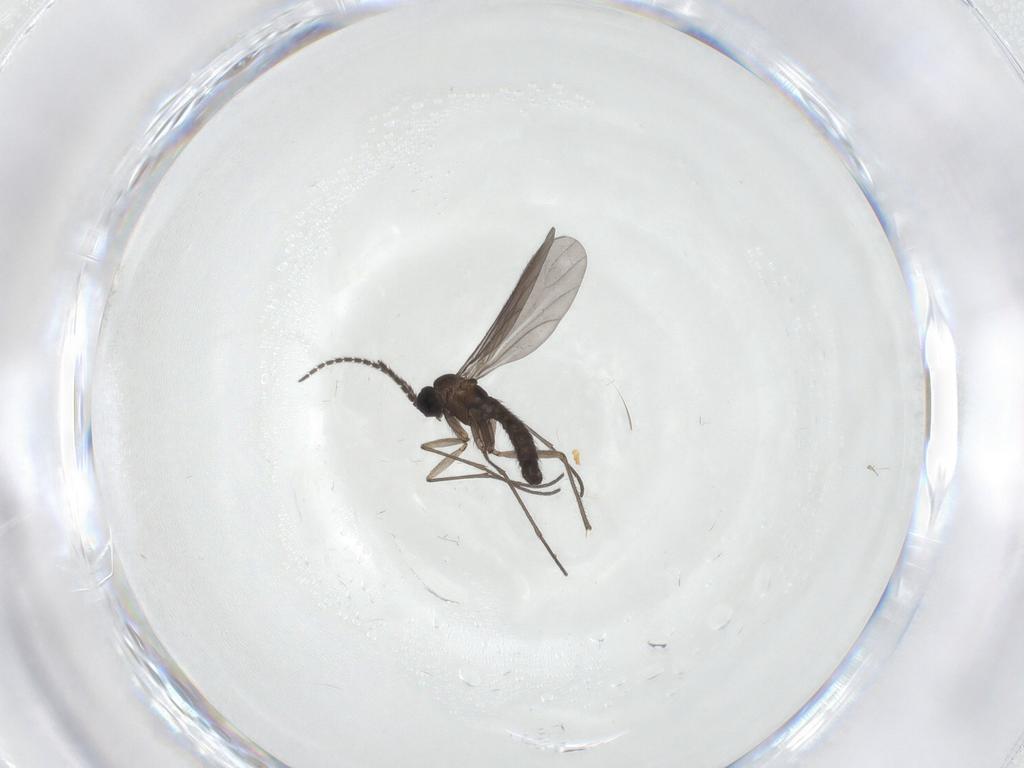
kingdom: Animalia
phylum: Arthropoda
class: Insecta
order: Diptera
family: Sciaridae
